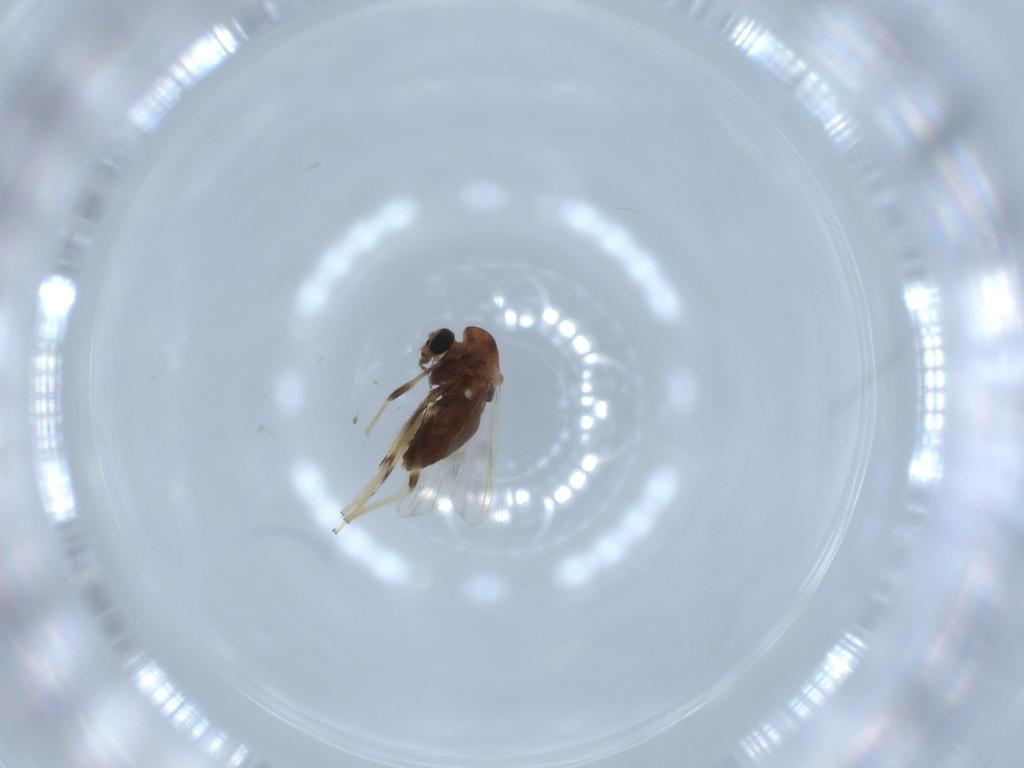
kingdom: Animalia
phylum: Arthropoda
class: Insecta
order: Diptera
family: Chironomidae
